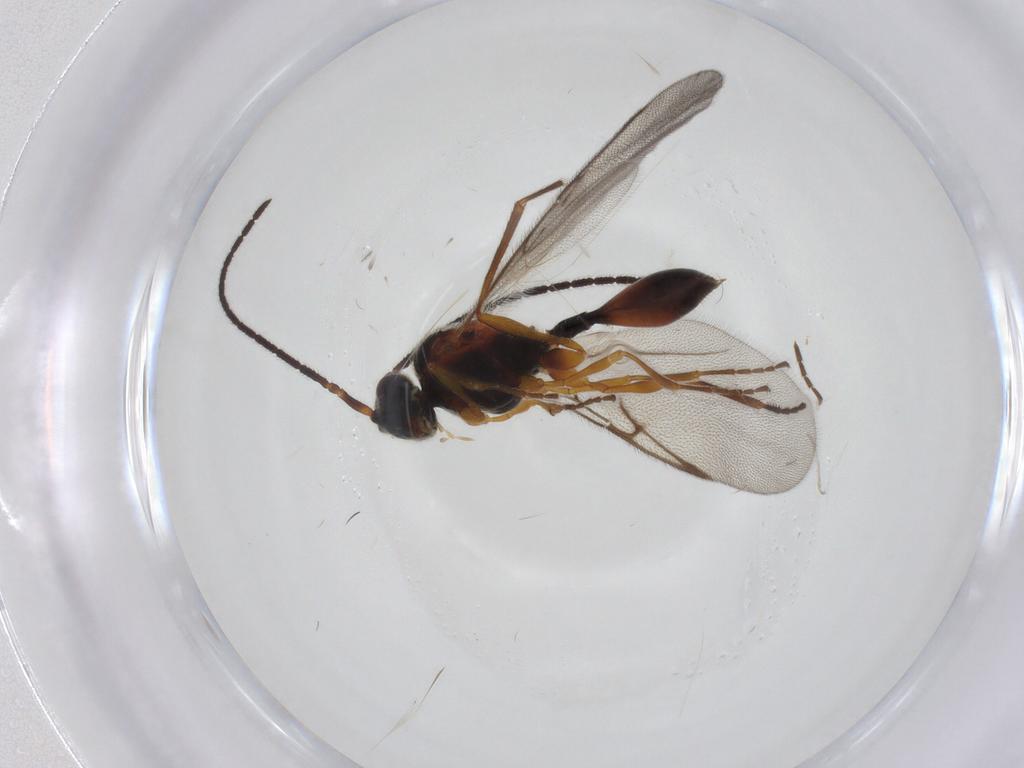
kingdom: Animalia
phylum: Arthropoda
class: Insecta
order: Hymenoptera
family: Diapriidae
